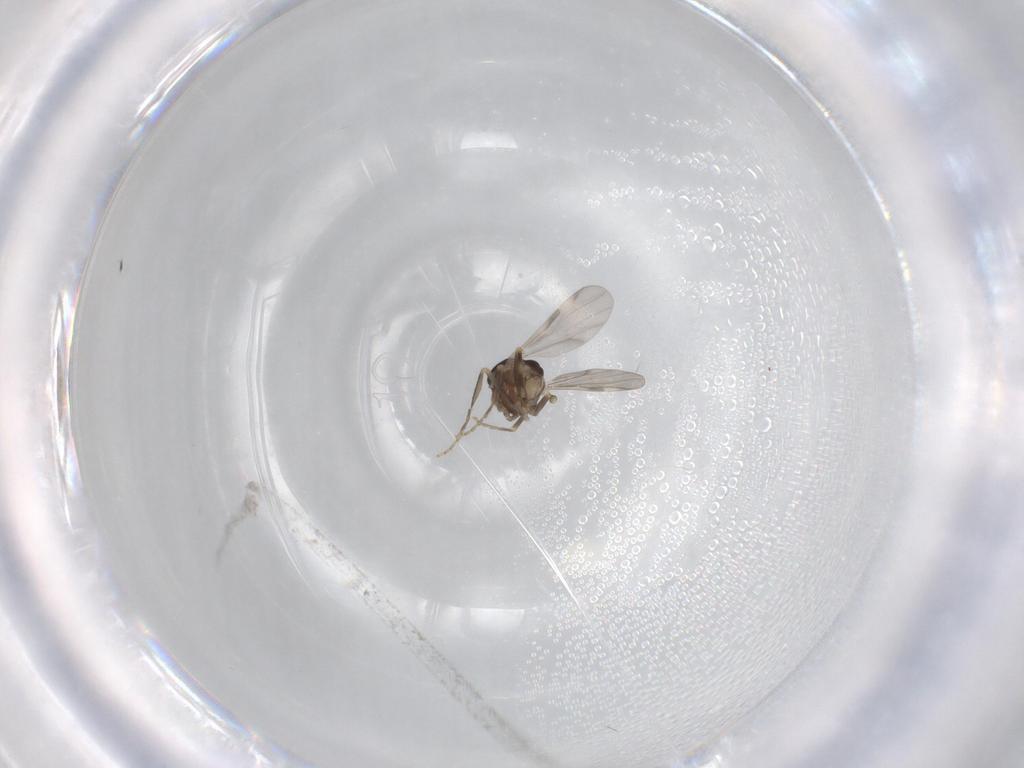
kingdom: Animalia
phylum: Arthropoda
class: Insecta
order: Diptera
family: Ceratopogonidae
